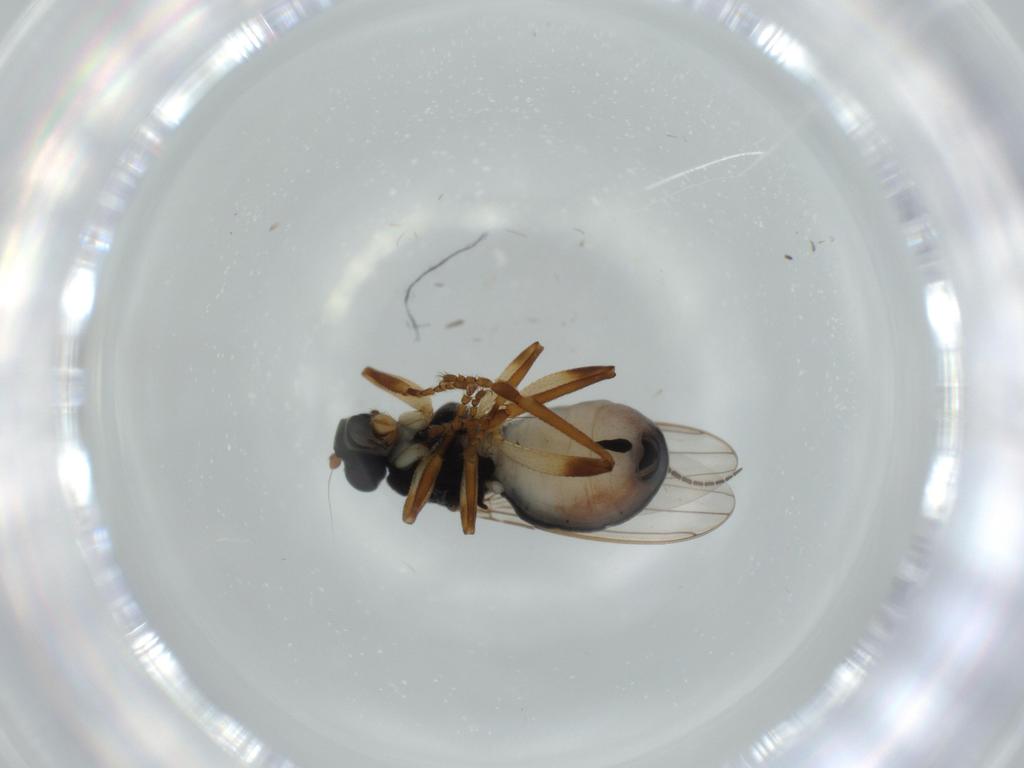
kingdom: Animalia
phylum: Arthropoda
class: Insecta
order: Diptera
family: Sphaeroceridae
